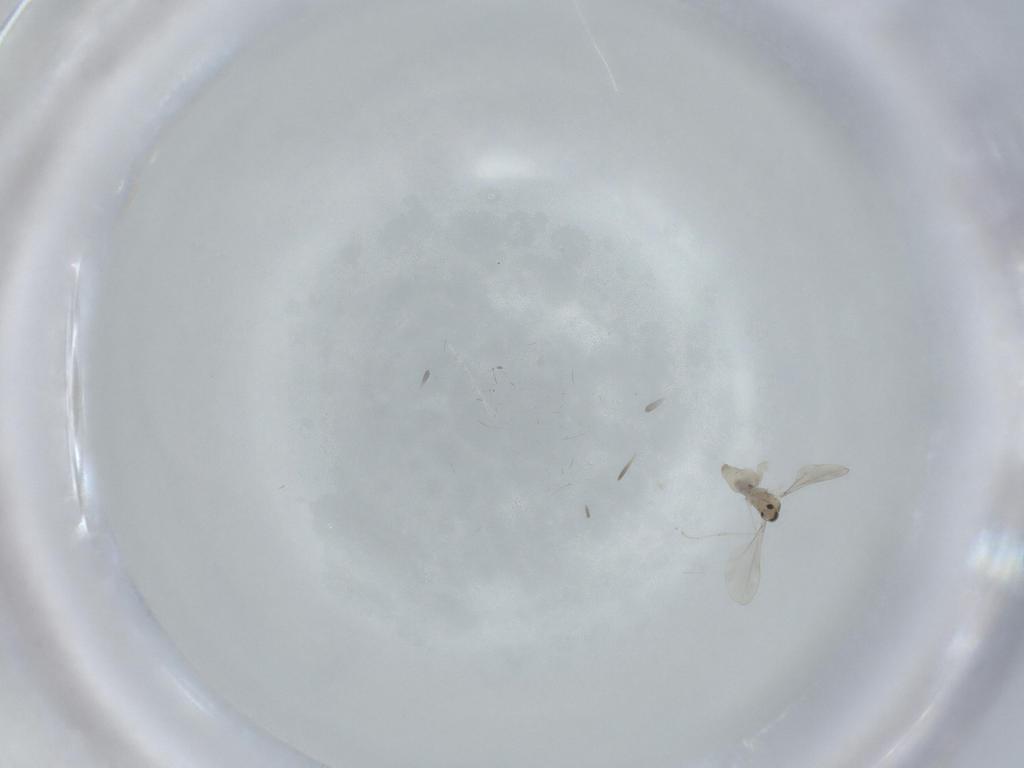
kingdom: Animalia
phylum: Arthropoda
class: Insecta
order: Diptera
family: Cecidomyiidae
